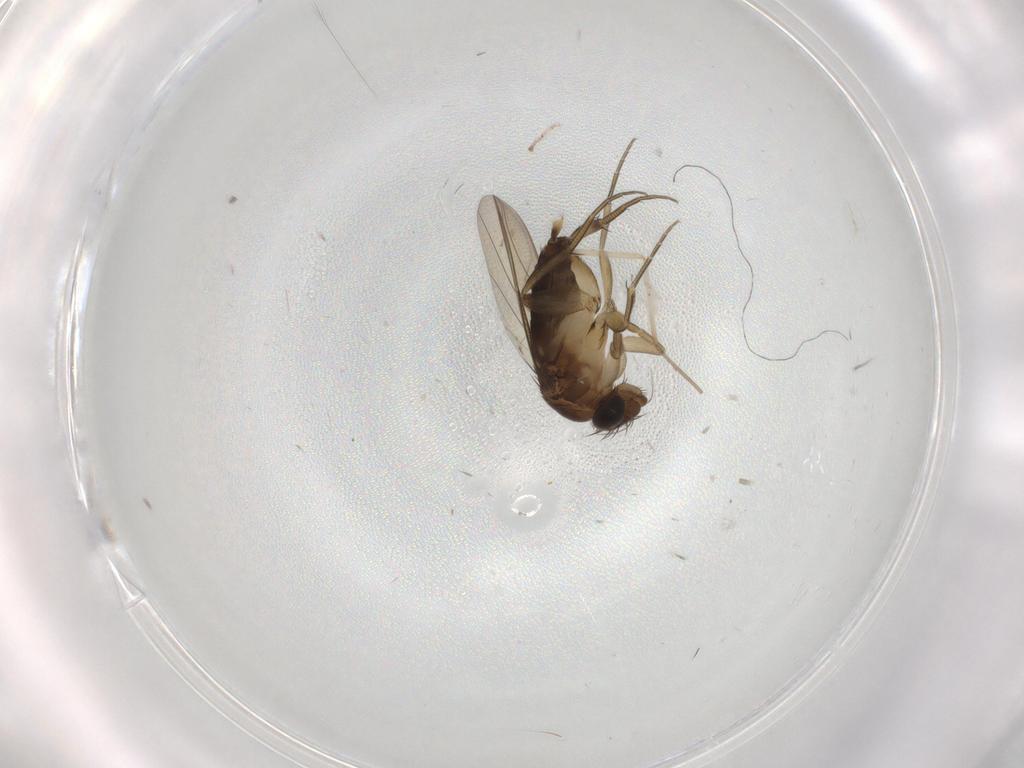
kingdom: Animalia
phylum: Arthropoda
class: Insecta
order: Diptera
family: Phoridae
